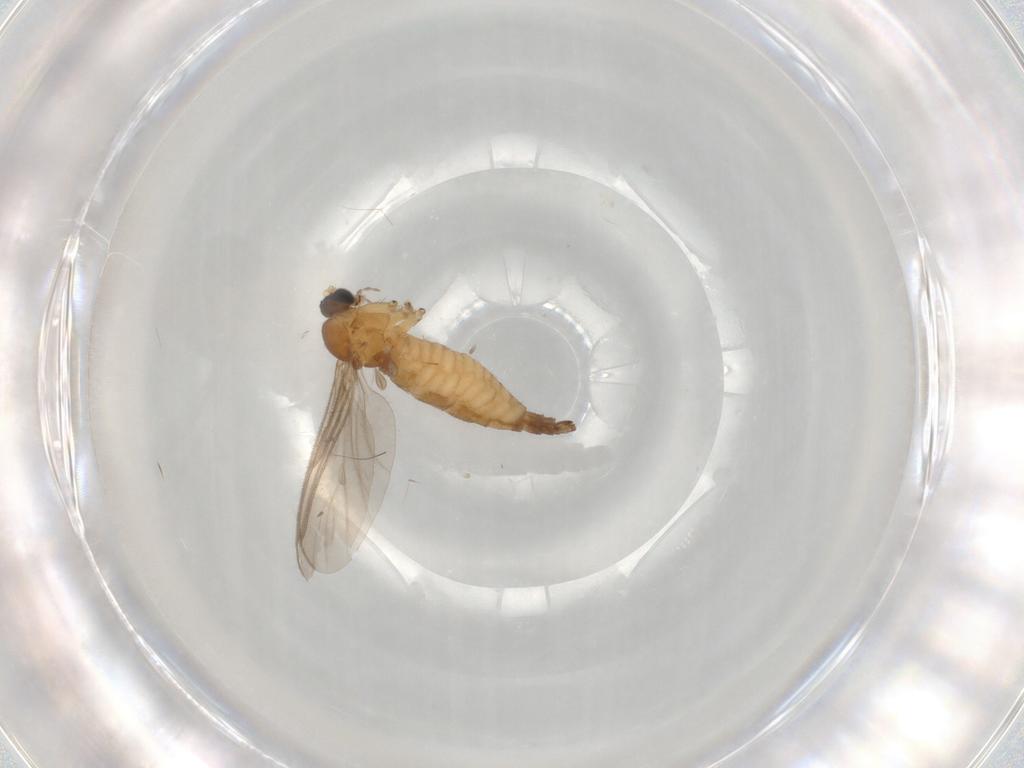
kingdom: Animalia
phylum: Arthropoda
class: Insecta
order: Diptera
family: Sciaridae
